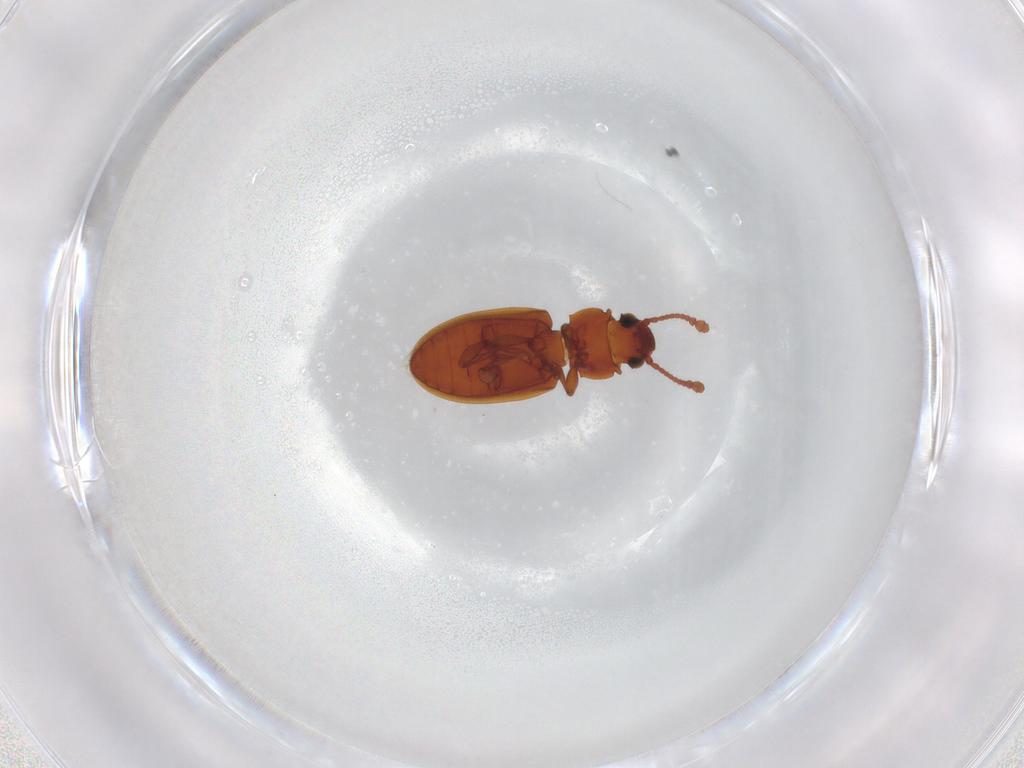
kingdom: Animalia
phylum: Arthropoda
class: Insecta
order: Coleoptera
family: Silvanidae
